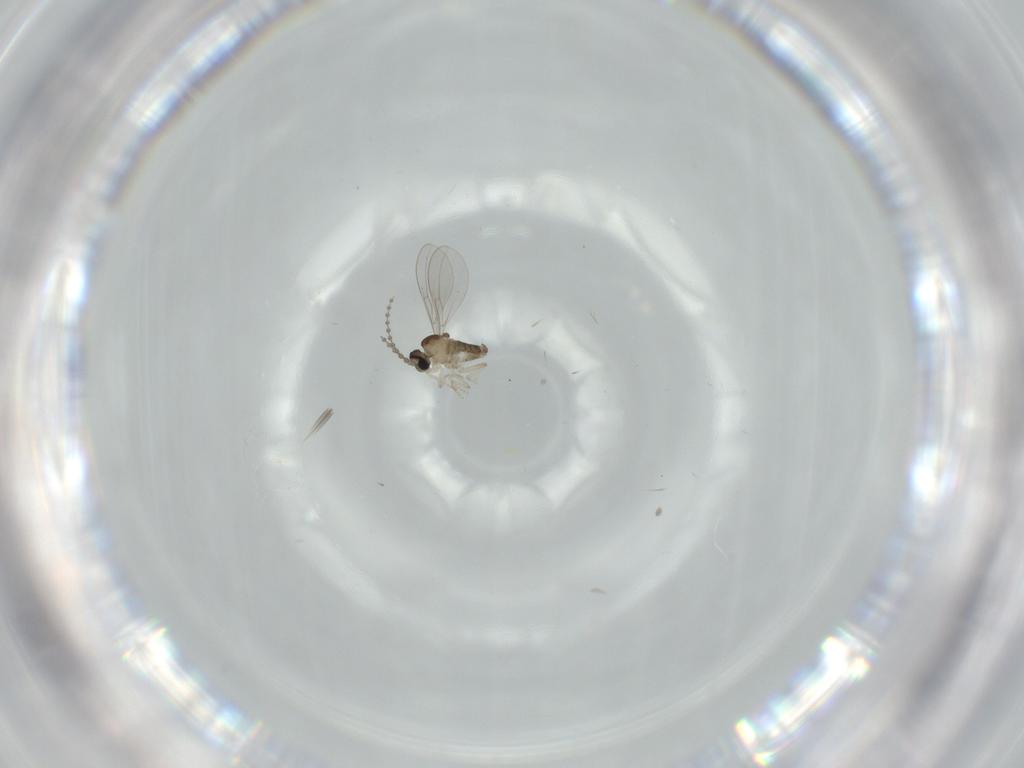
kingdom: Animalia
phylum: Arthropoda
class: Insecta
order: Diptera
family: Cecidomyiidae
